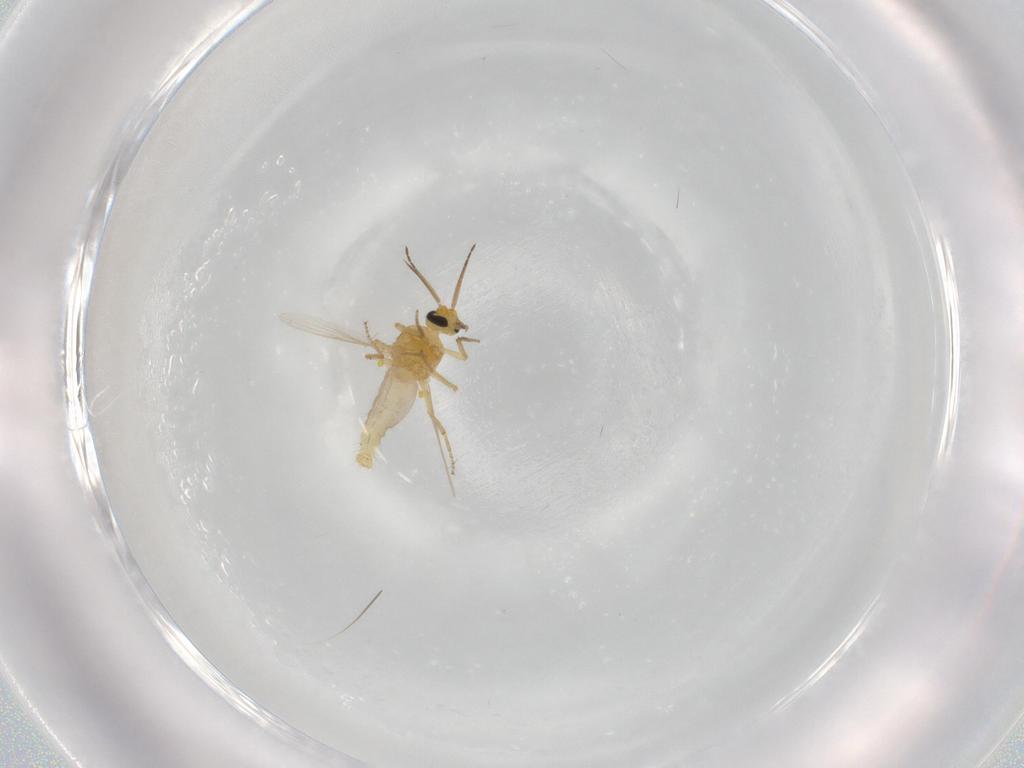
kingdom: Animalia
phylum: Arthropoda
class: Insecta
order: Diptera
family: Ceratopogonidae
